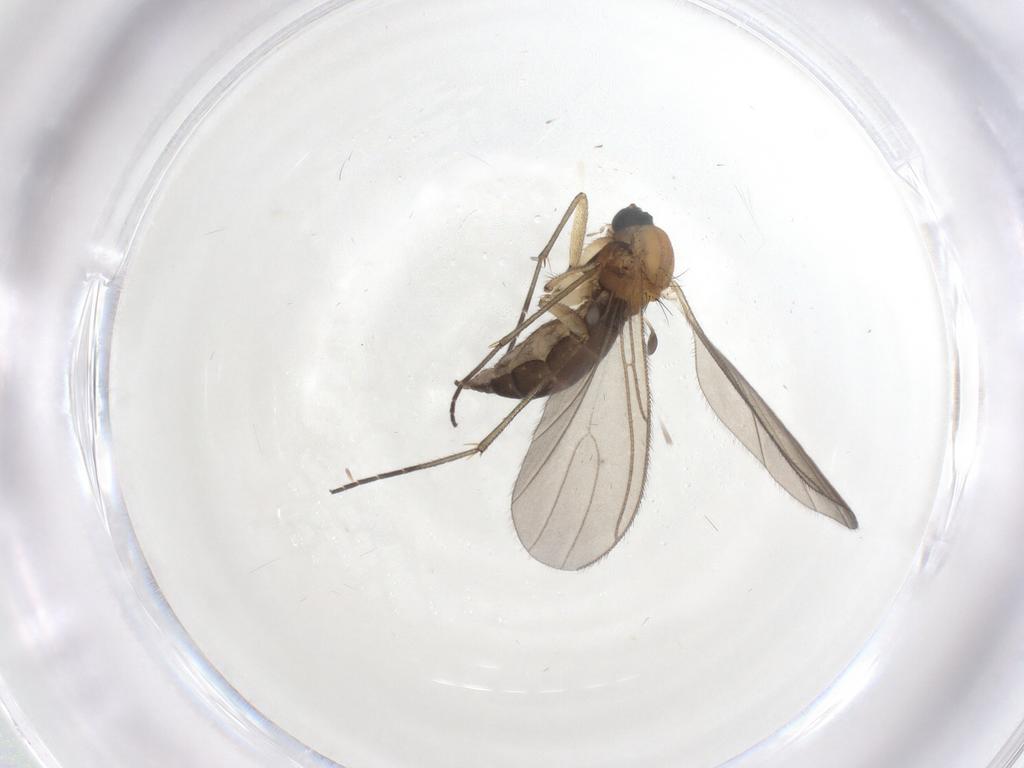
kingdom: Animalia
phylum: Arthropoda
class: Insecta
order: Diptera
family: Sciaridae
